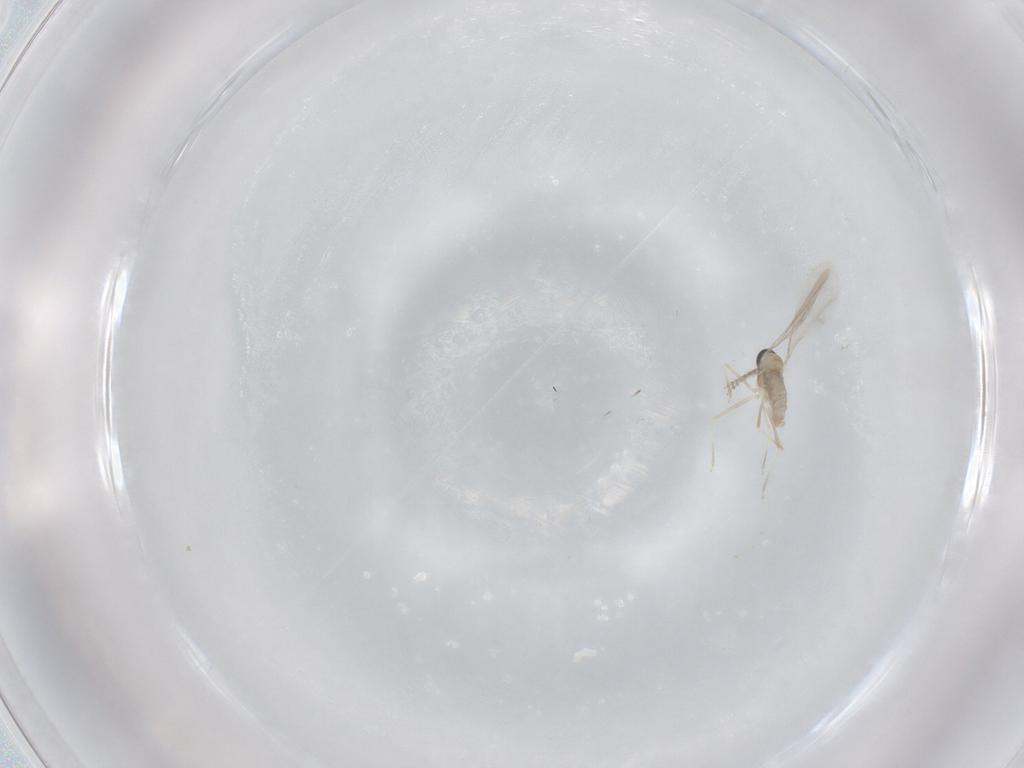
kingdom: Animalia
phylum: Arthropoda
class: Insecta
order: Diptera
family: Cecidomyiidae
